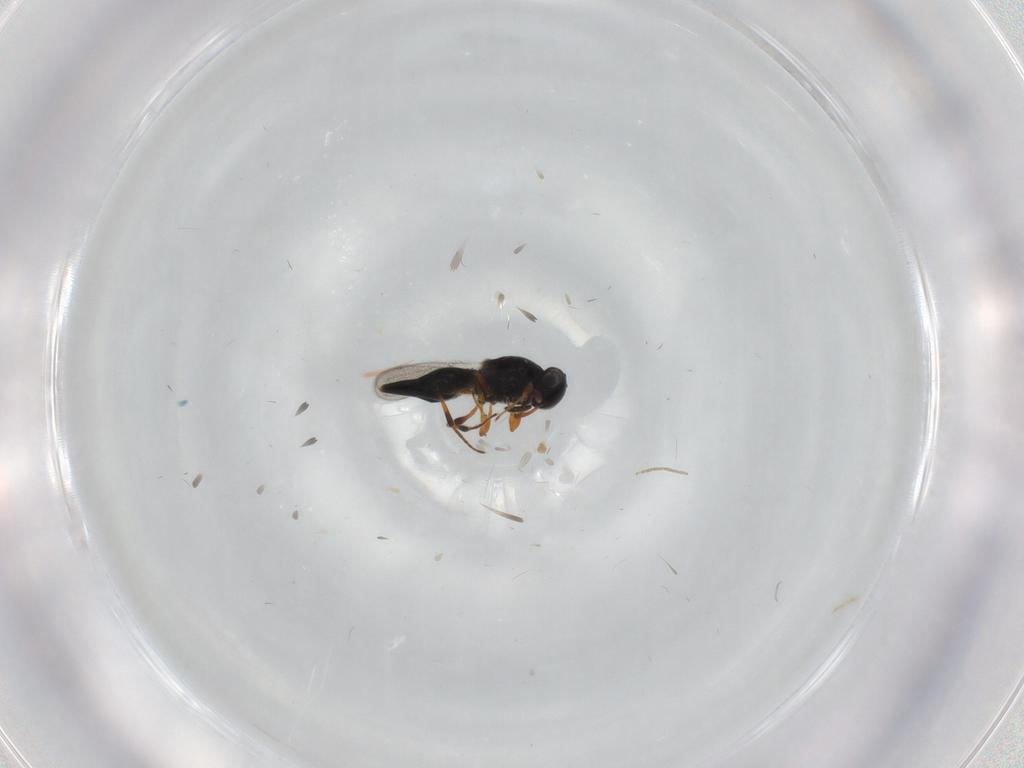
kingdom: Animalia
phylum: Arthropoda
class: Insecta
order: Hymenoptera
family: Platygastridae
